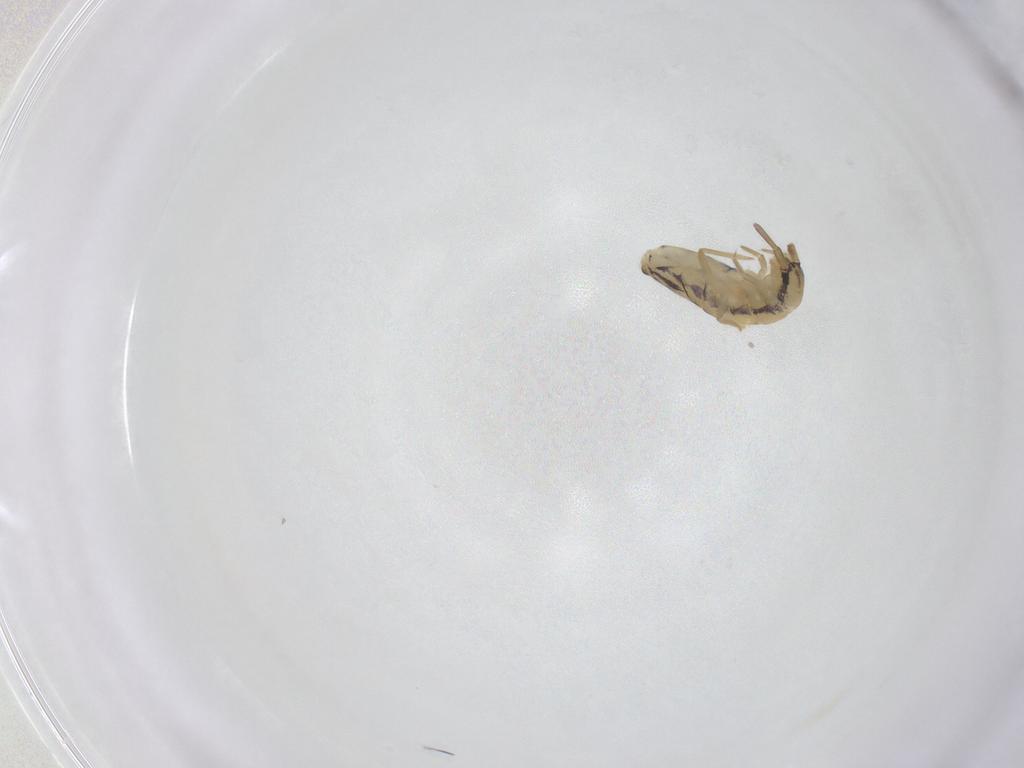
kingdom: Animalia
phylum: Arthropoda
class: Collembola
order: Entomobryomorpha
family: Entomobryidae
